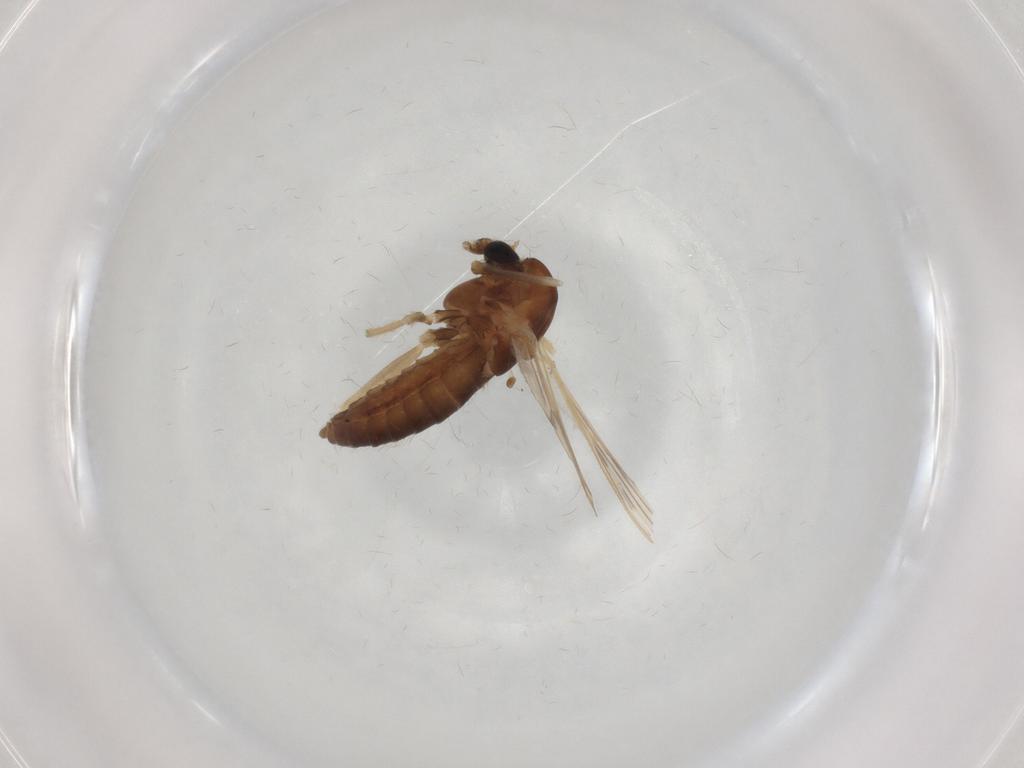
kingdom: Animalia
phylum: Arthropoda
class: Insecta
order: Diptera
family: Chironomidae
